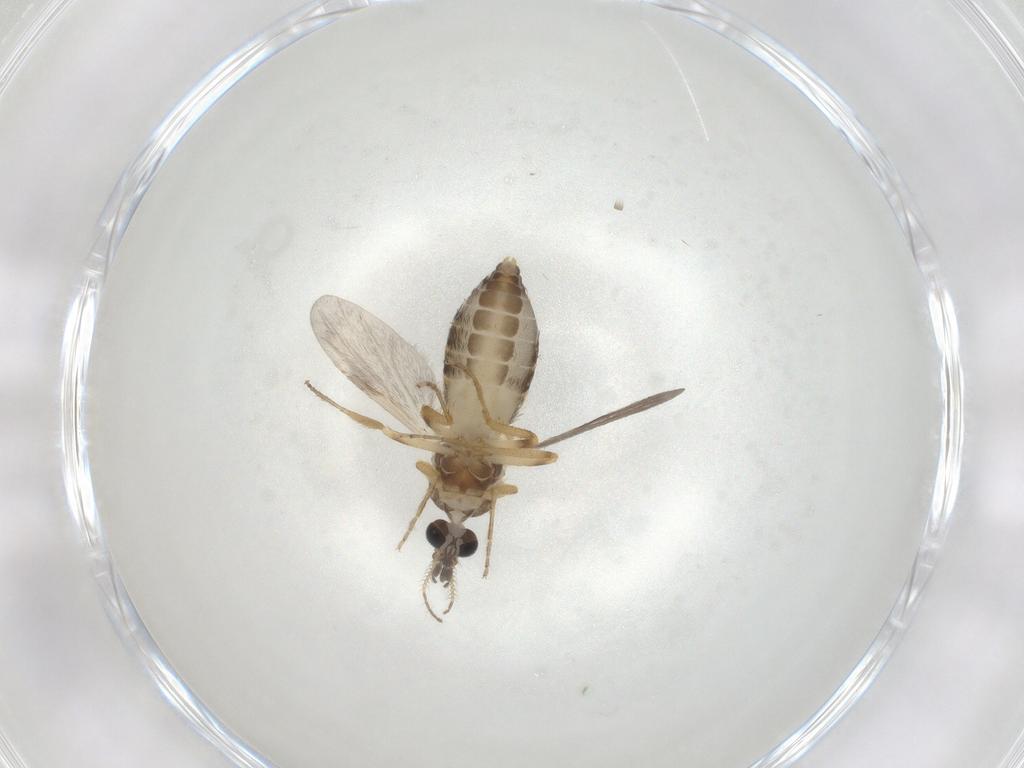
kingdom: Animalia
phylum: Arthropoda
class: Insecta
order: Diptera
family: Ceratopogonidae
